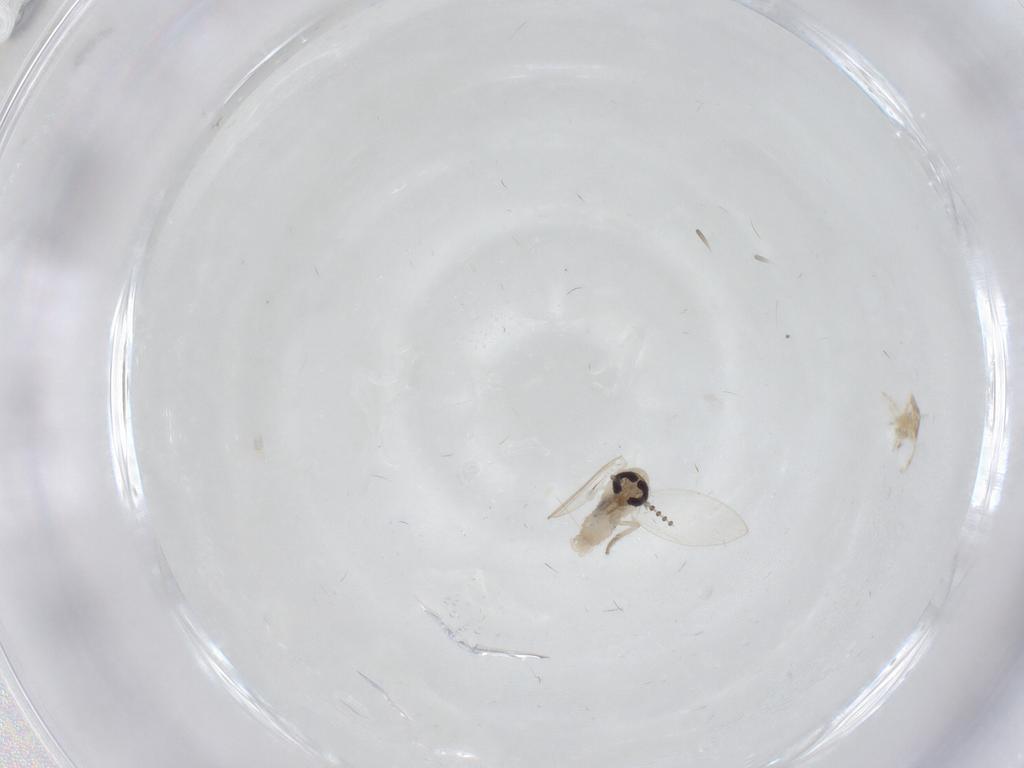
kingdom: Animalia
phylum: Arthropoda
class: Insecta
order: Diptera
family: Psychodidae
